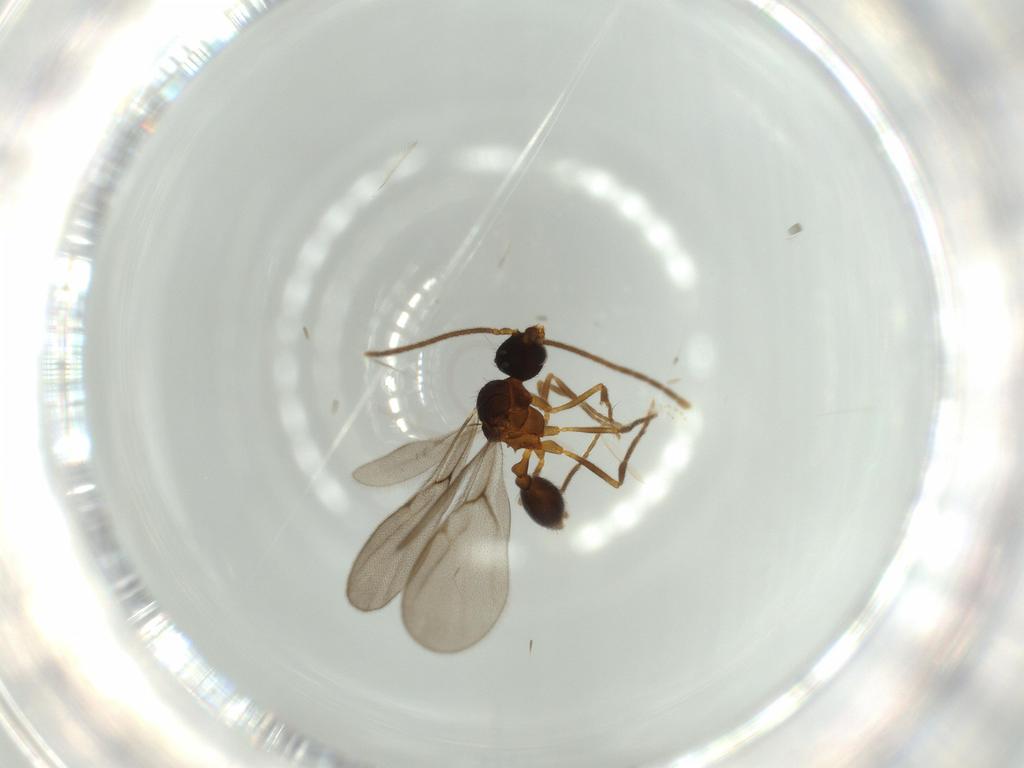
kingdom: Animalia
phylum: Arthropoda
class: Insecta
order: Hymenoptera
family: Formicidae
